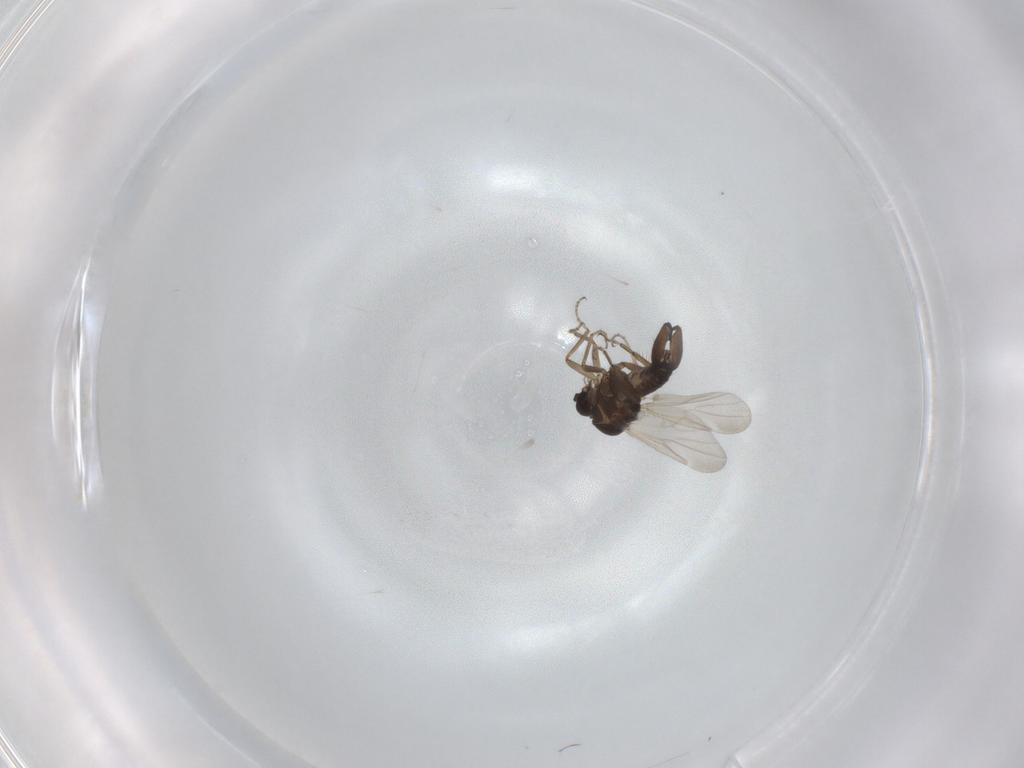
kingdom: Animalia
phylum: Arthropoda
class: Insecta
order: Diptera
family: Ceratopogonidae
